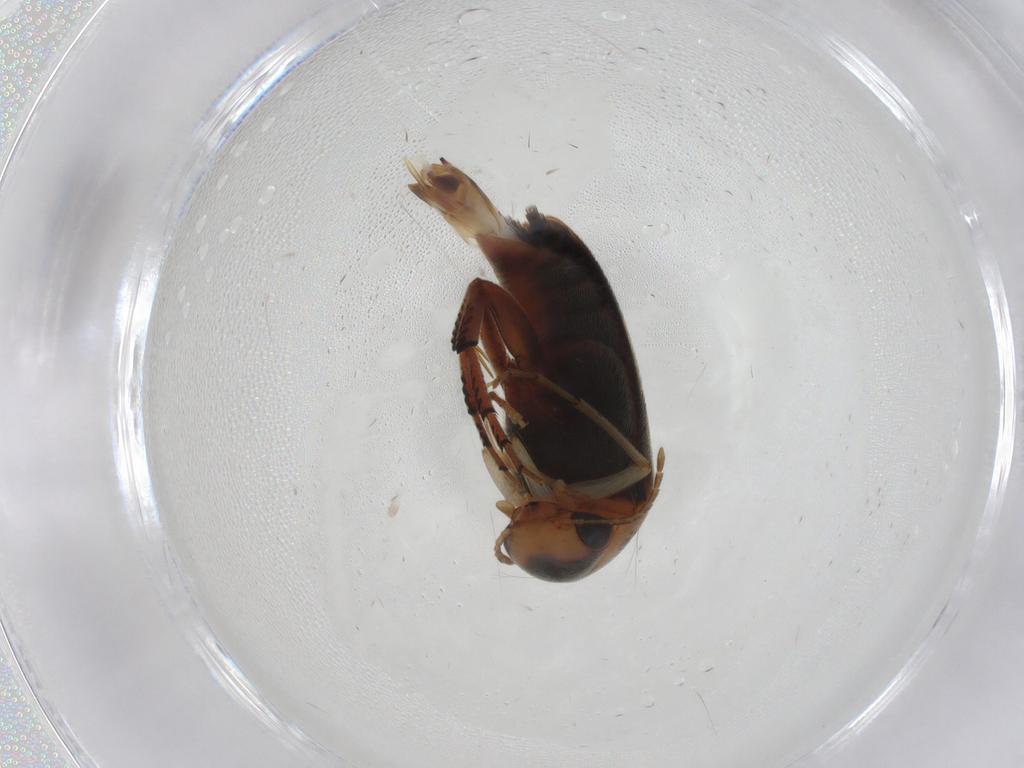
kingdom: Animalia
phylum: Arthropoda
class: Insecta
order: Coleoptera
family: Mordellidae
